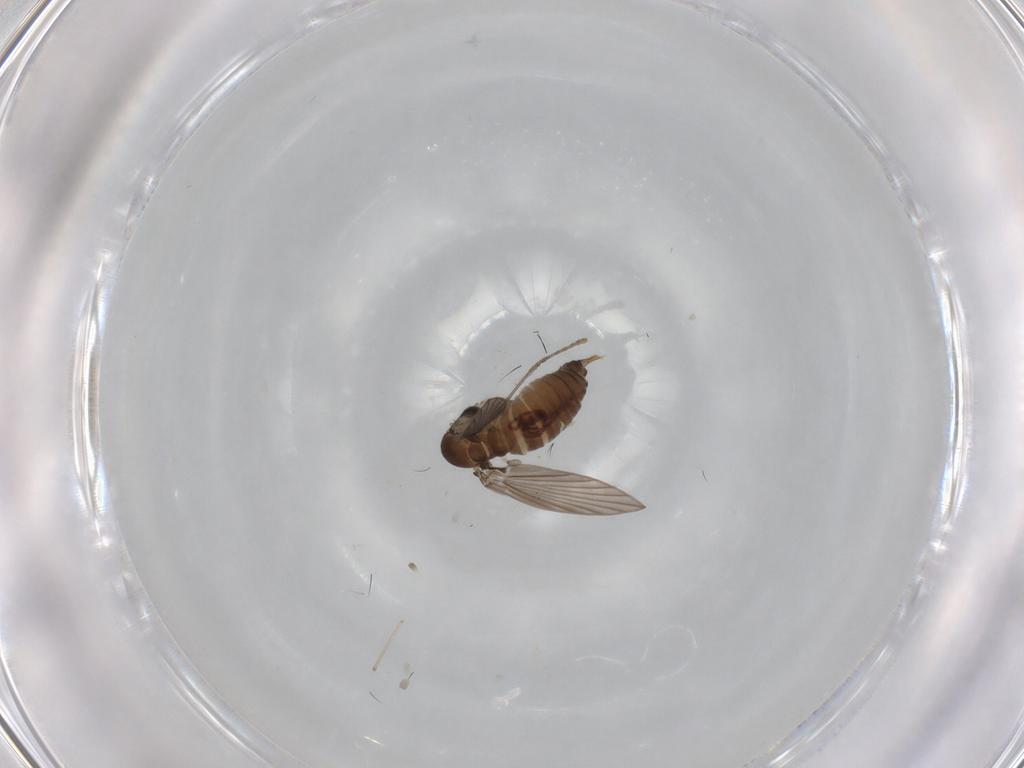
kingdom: Animalia
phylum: Arthropoda
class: Insecta
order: Diptera
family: Psychodidae
